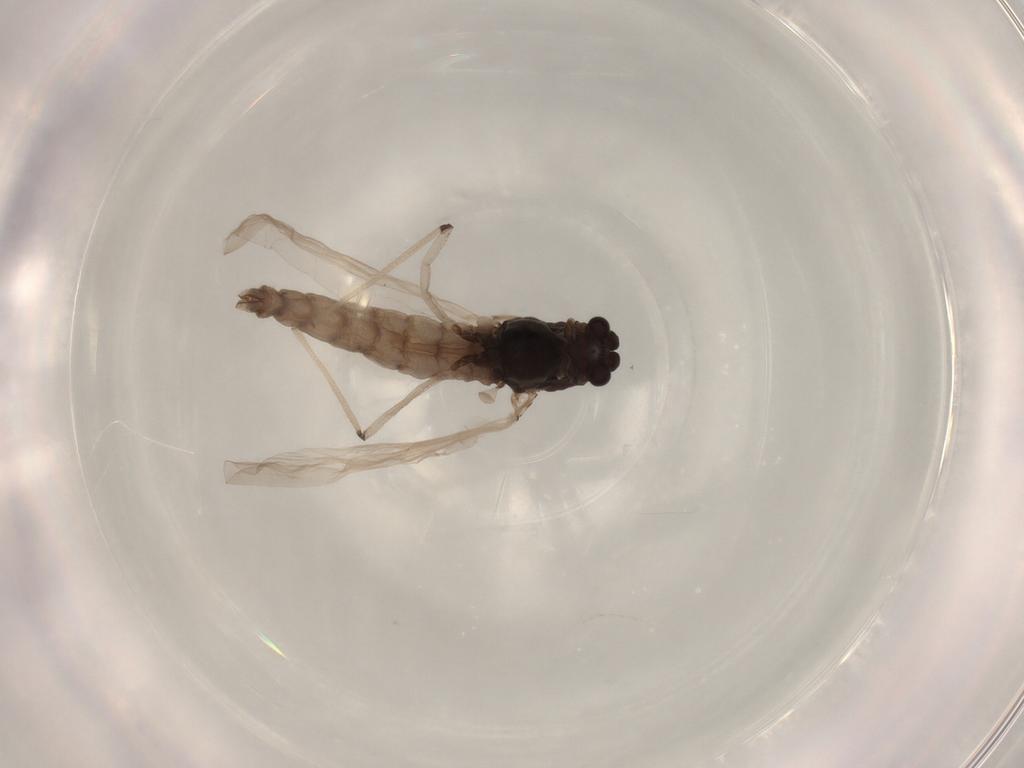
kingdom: Animalia
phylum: Arthropoda
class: Insecta
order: Diptera
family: Chironomidae
